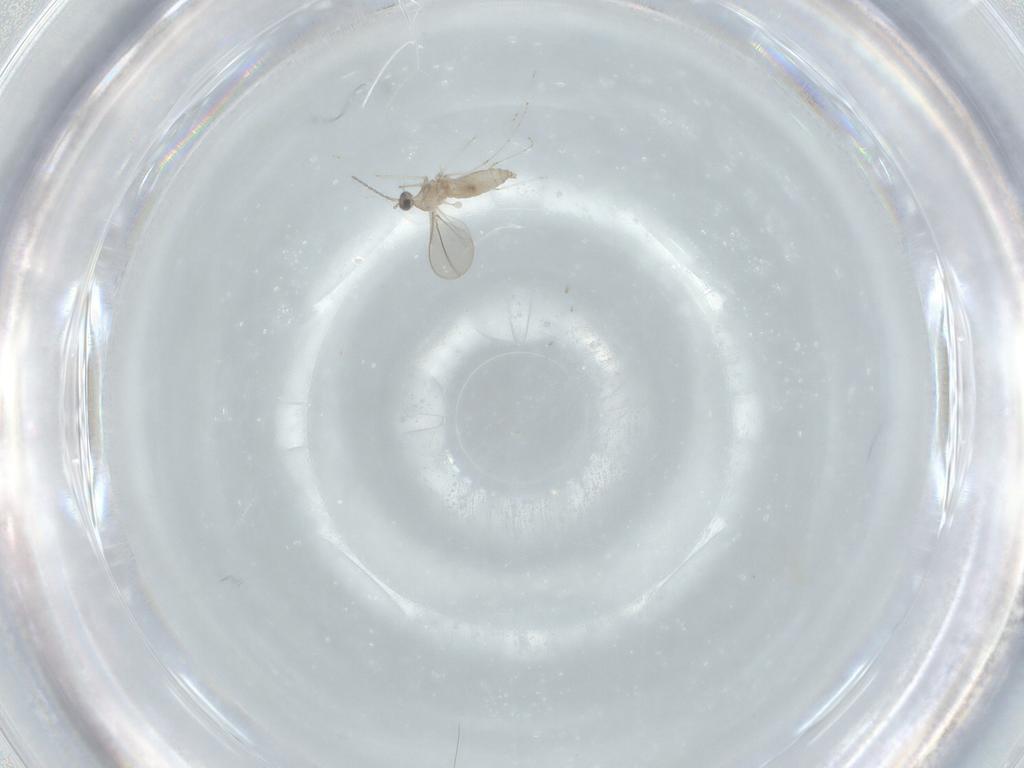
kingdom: Animalia
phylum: Arthropoda
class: Insecta
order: Diptera
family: Cecidomyiidae
